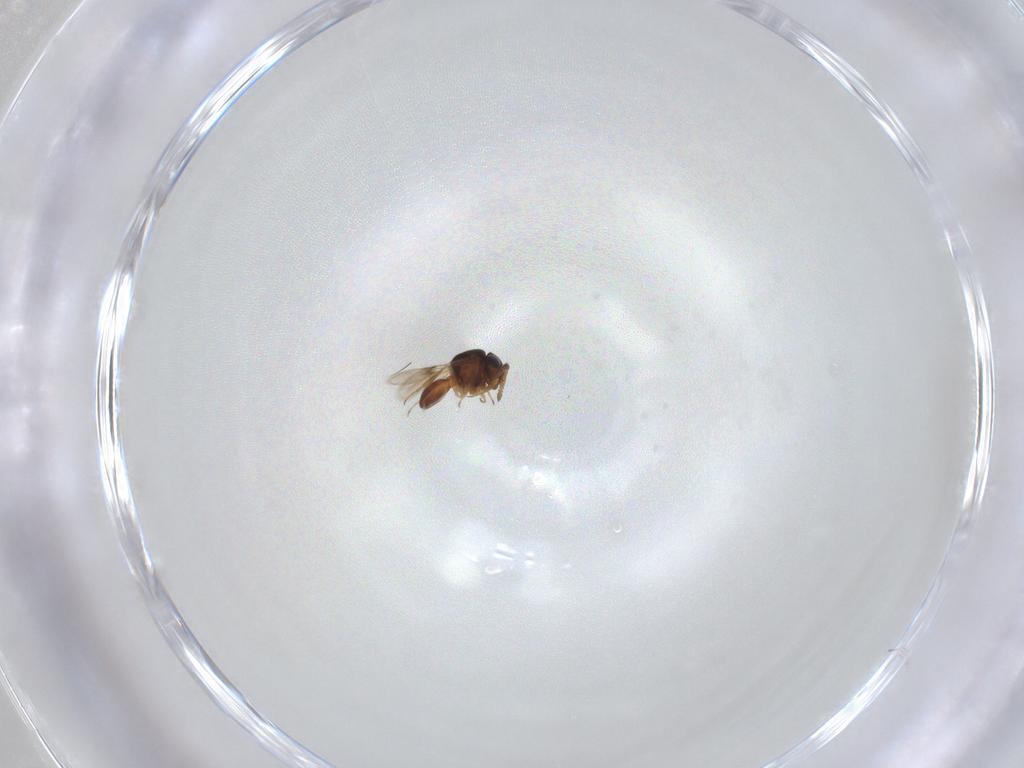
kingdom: Animalia
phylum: Arthropoda
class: Insecta
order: Hymenoptera
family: Scelionidae
